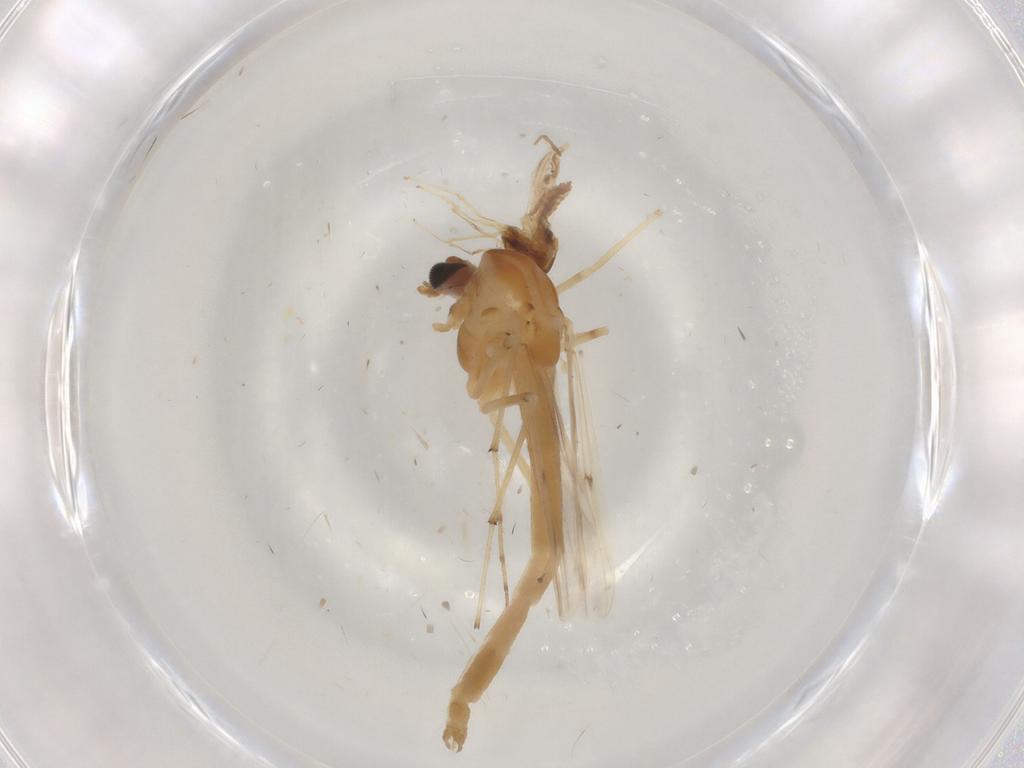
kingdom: Animalia
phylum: Arthropoda
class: Insecta
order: Diptera
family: Chironomidae
